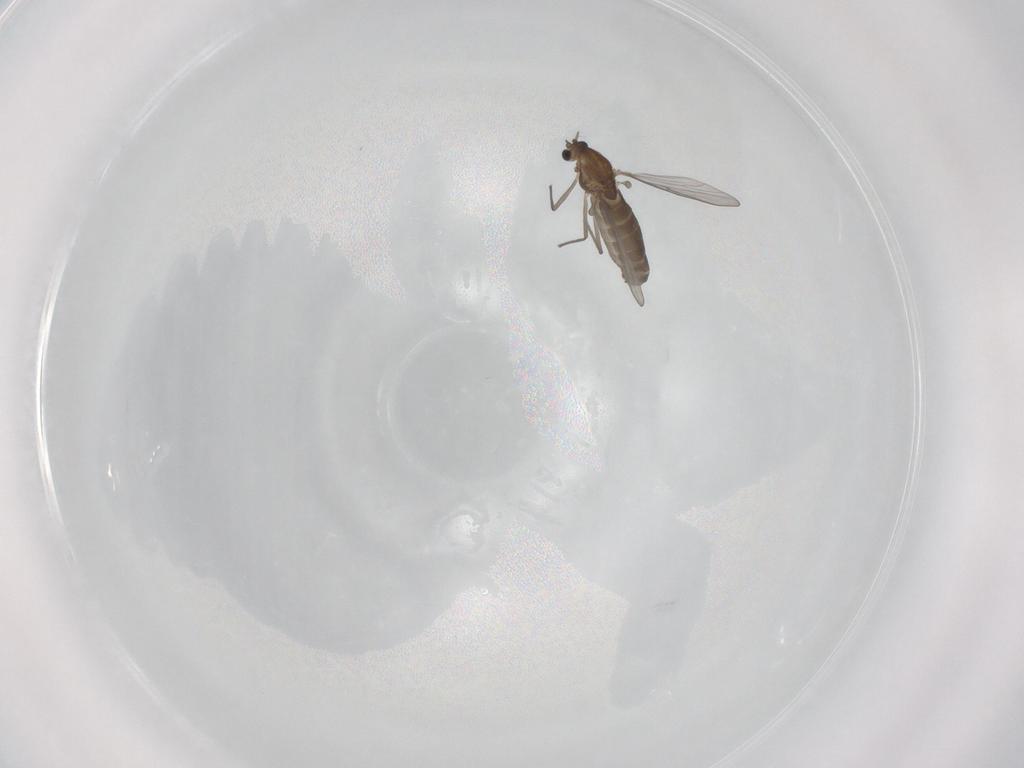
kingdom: Animalia
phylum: Arthropoda
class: Insecta
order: Diptera
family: Chironomidae
